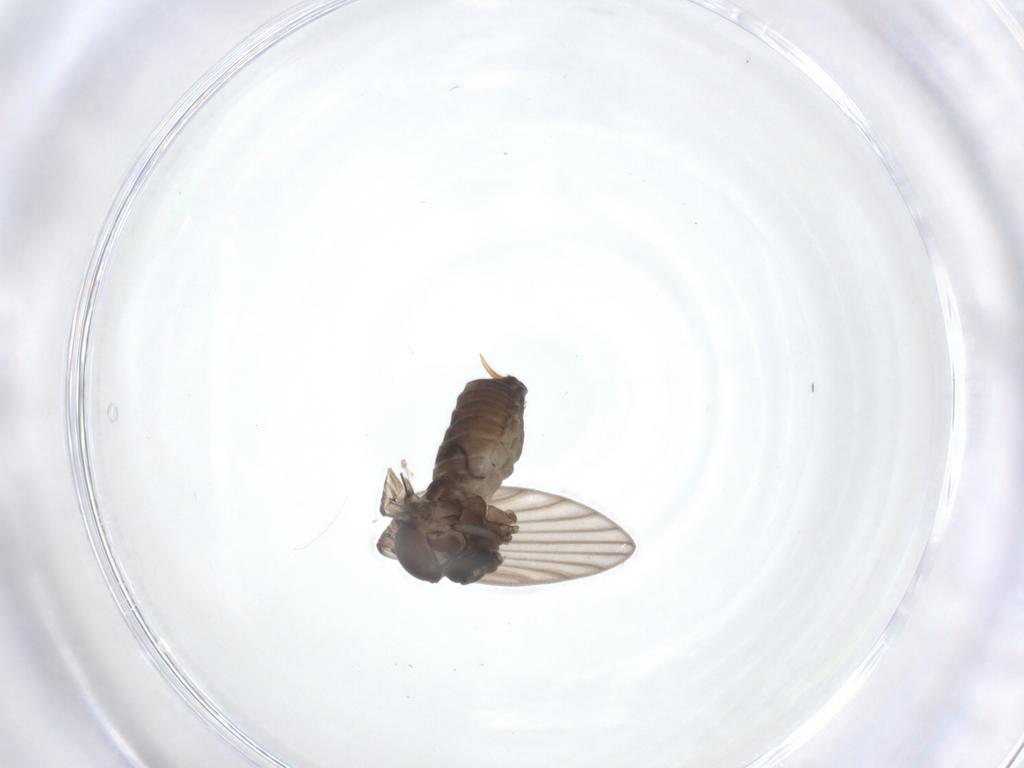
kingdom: Animalia
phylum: Arthropoda
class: Insecta
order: Diptera
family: Psychodidae
